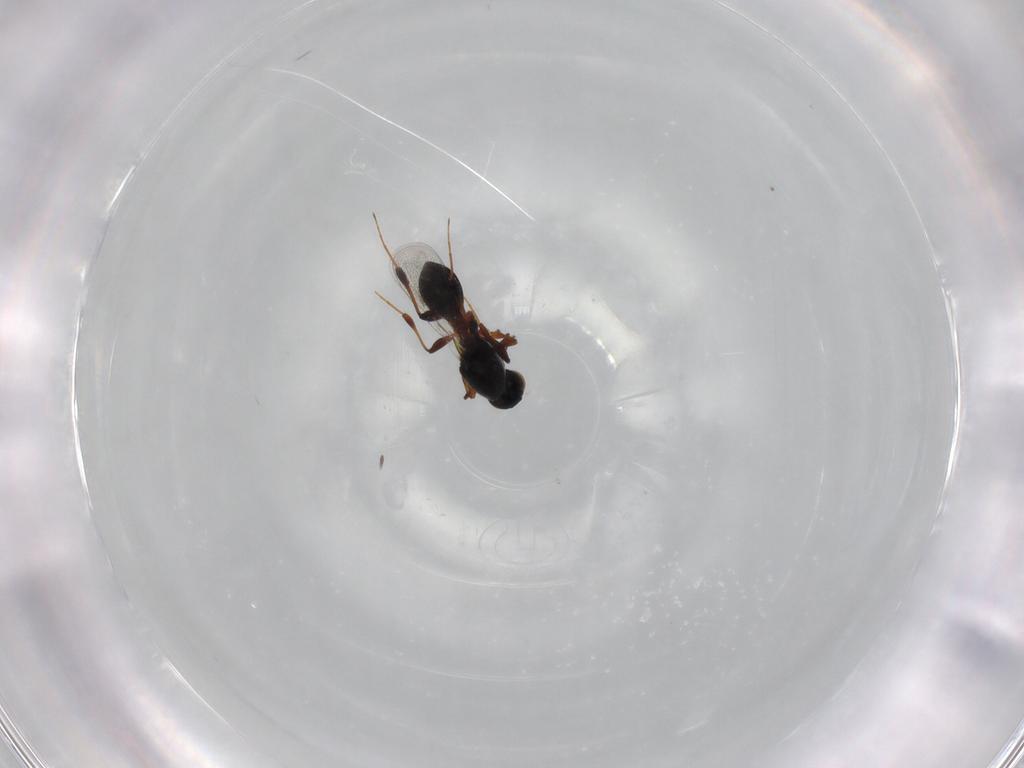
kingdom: Animalia
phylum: Arthropoda
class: Insecta
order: Hymenoptera
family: Platygastridae
